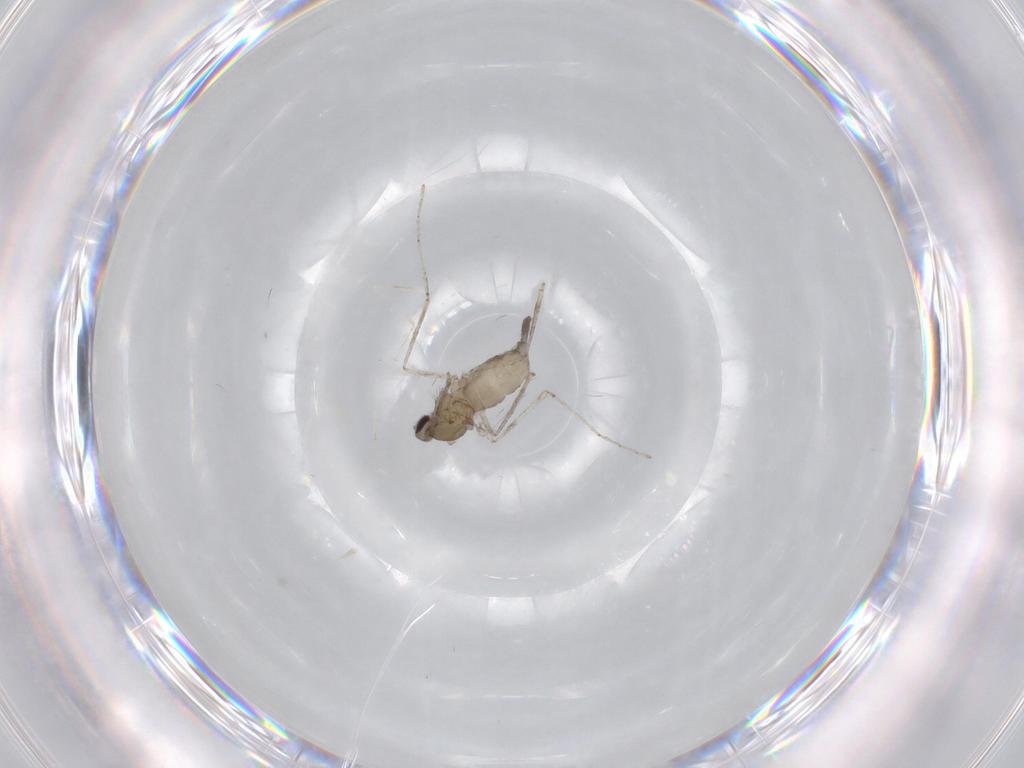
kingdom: Animalia
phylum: Arthropoda
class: Insecta
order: Diptera
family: Cecidomyiidae
